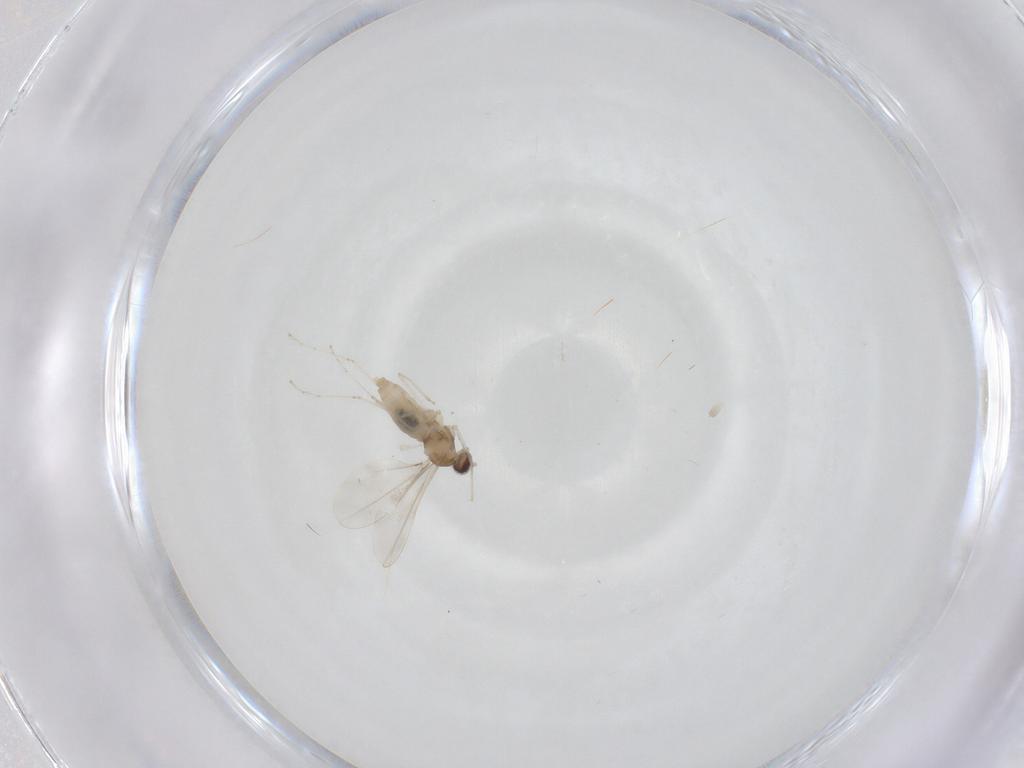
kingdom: Animalia
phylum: Arthropoda
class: Insecta
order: Diptera
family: Cecidomyiidae
